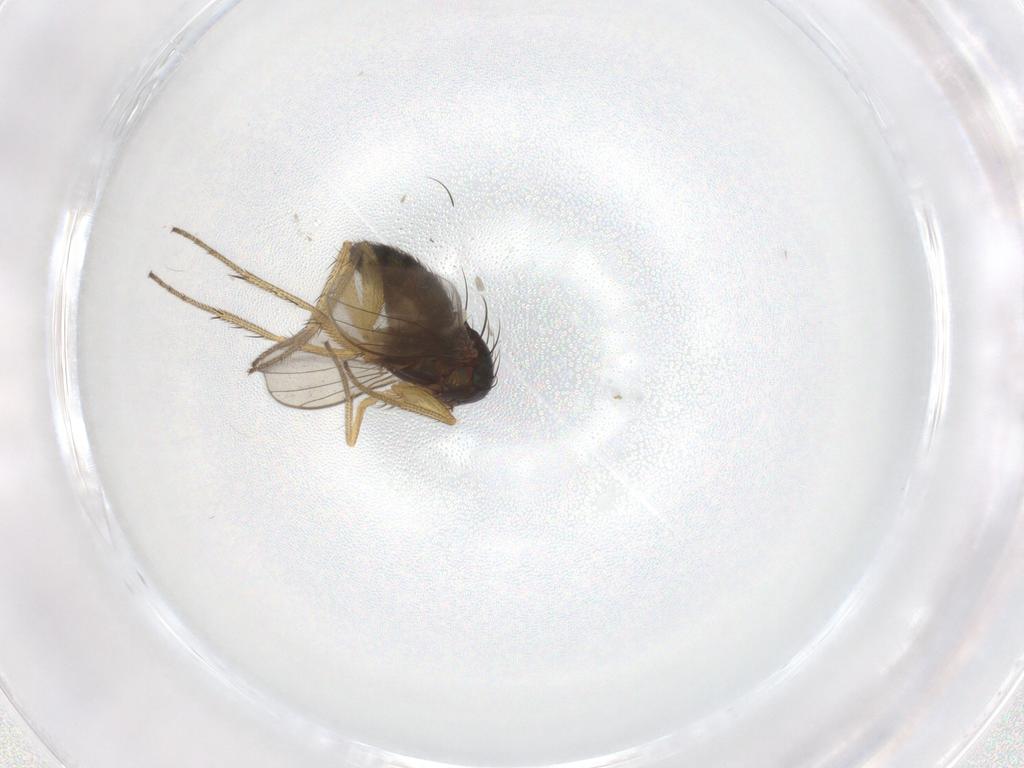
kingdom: Animalia
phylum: Arthropoda
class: Insecta
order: Diptera
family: Dolichopodidae
